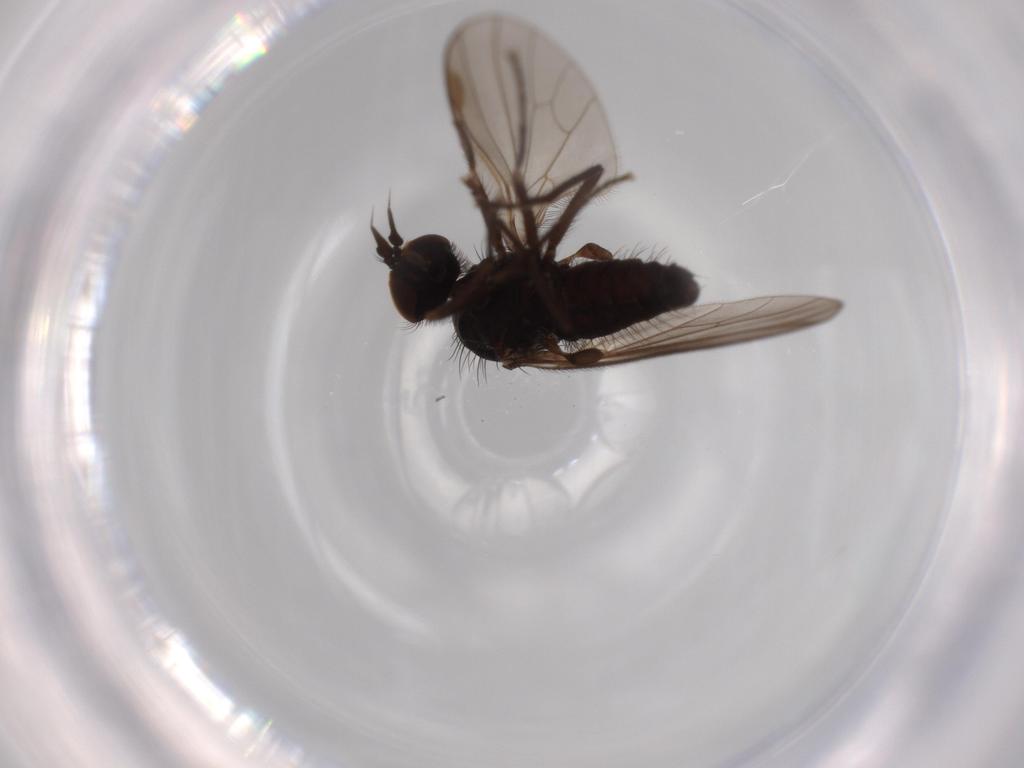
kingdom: Animalia
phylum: Arthropoda
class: Insecta
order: Diptera
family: Dolichopodidae
